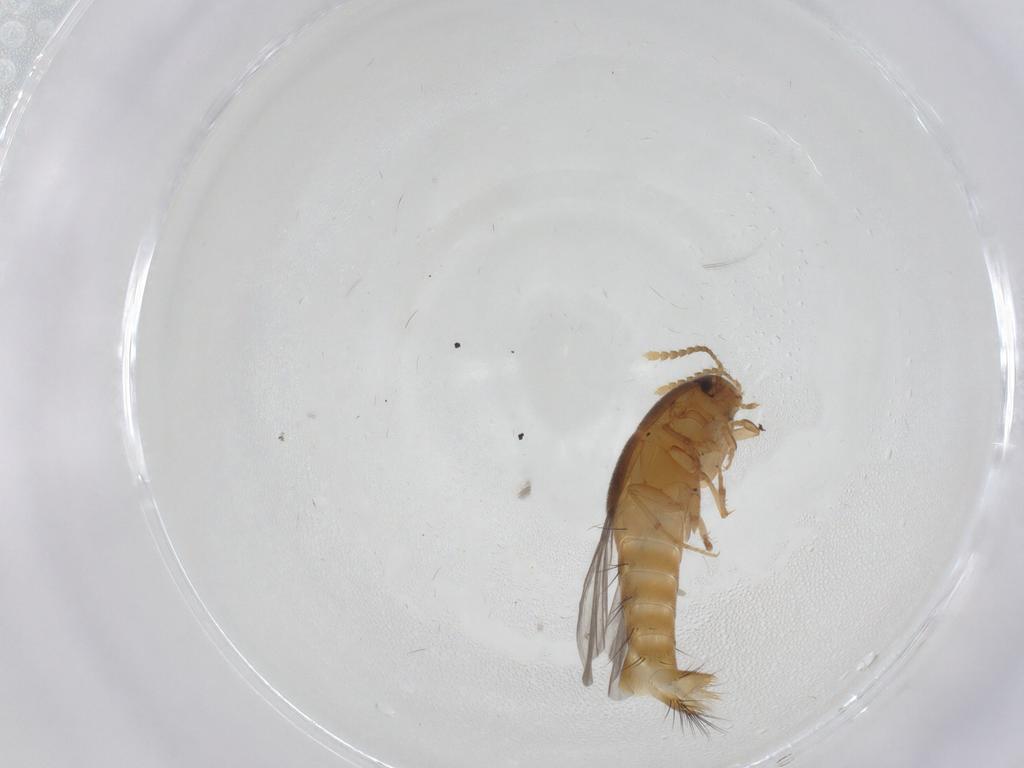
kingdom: Animalia
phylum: Arthropoda
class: Insecta
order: Coleoptera
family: Staphylinidae
